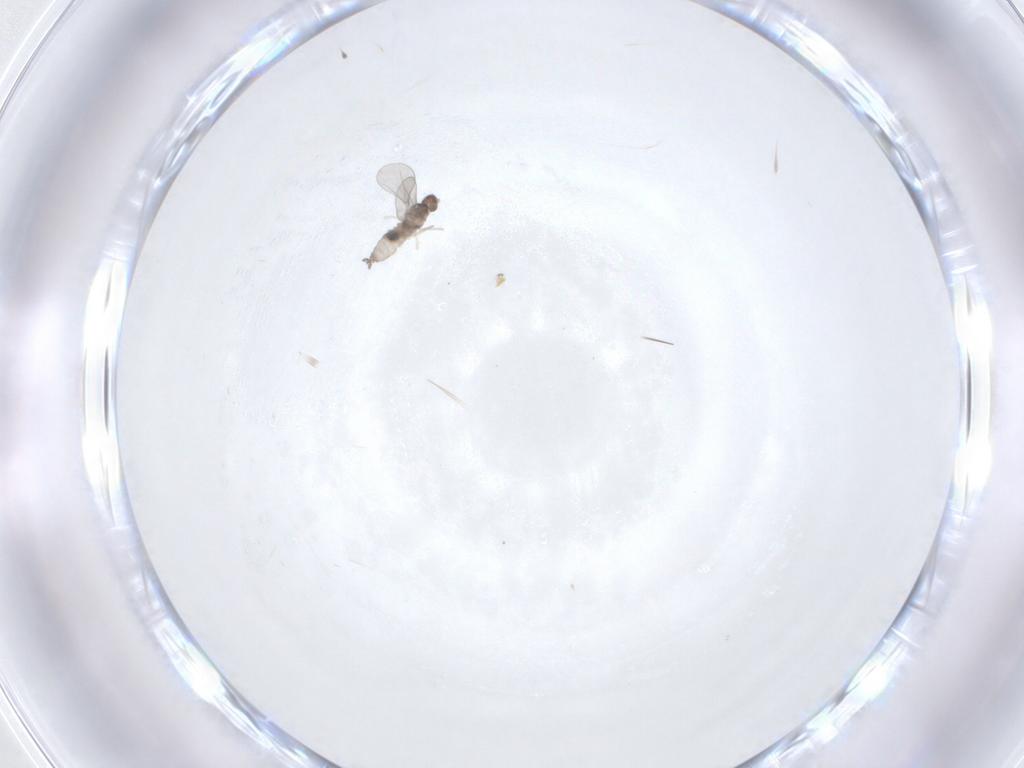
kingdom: Animalia
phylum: Arthropoda
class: Insecta
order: Diptera
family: Psychodidae
